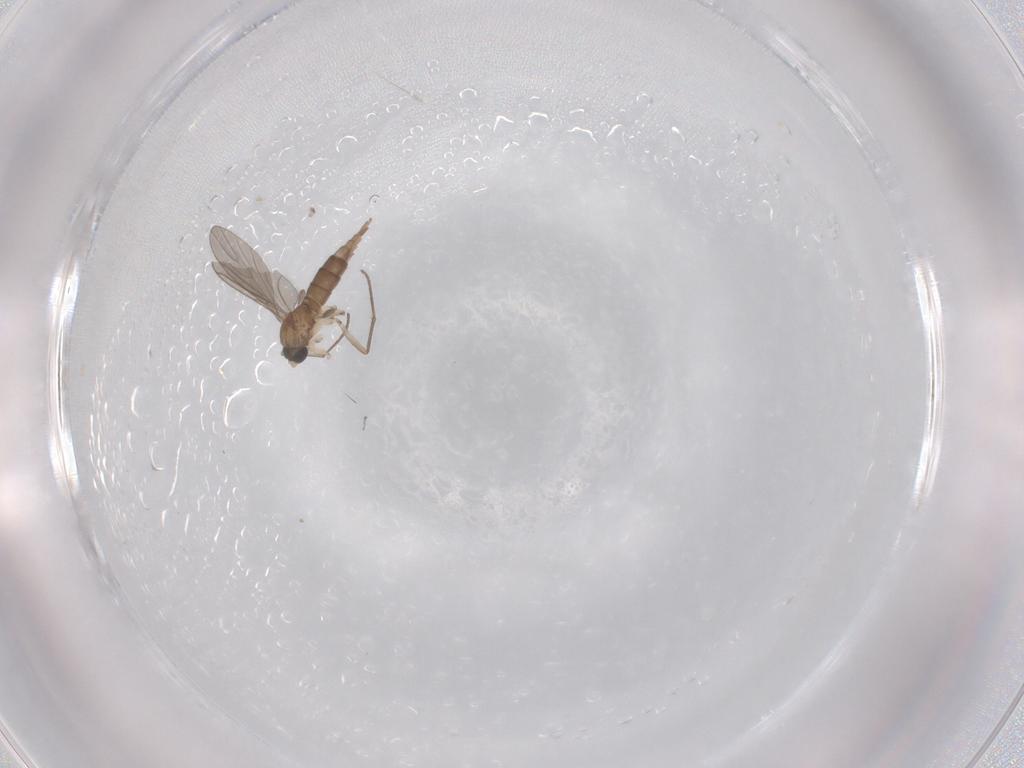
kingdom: Animalia
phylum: Arthropoda
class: Insecta
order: Diptera
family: Sciaridae
